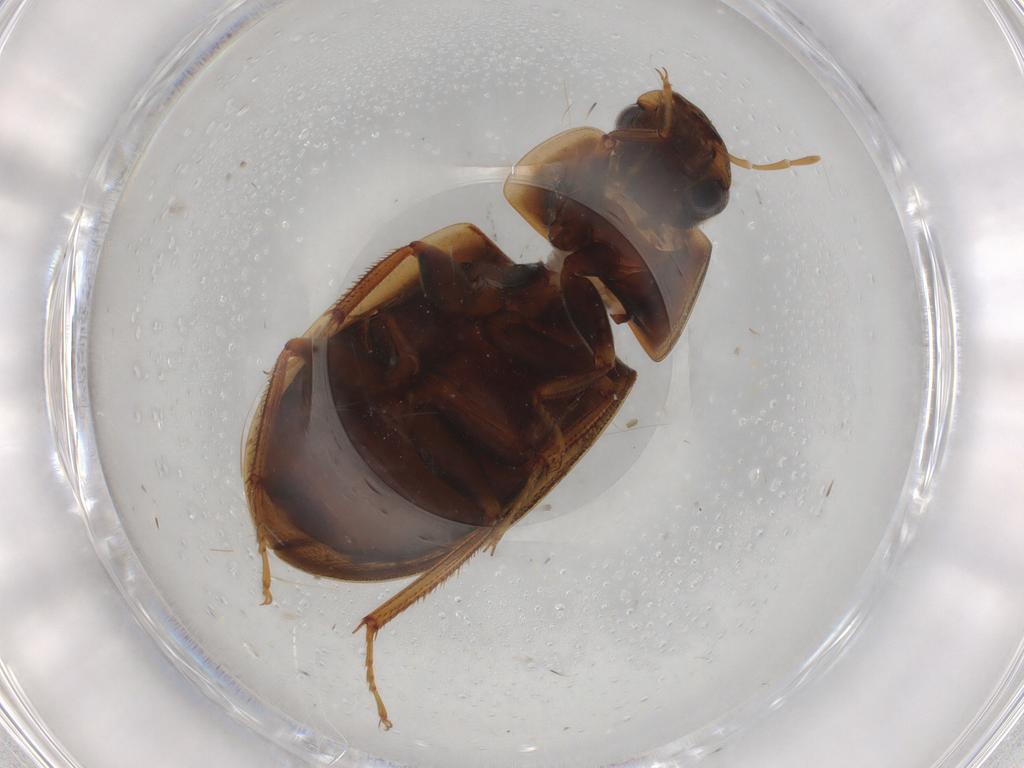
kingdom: Animalia
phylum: Arthropoda
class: Insecta
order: Coleoptera
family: Hydrophilidae
